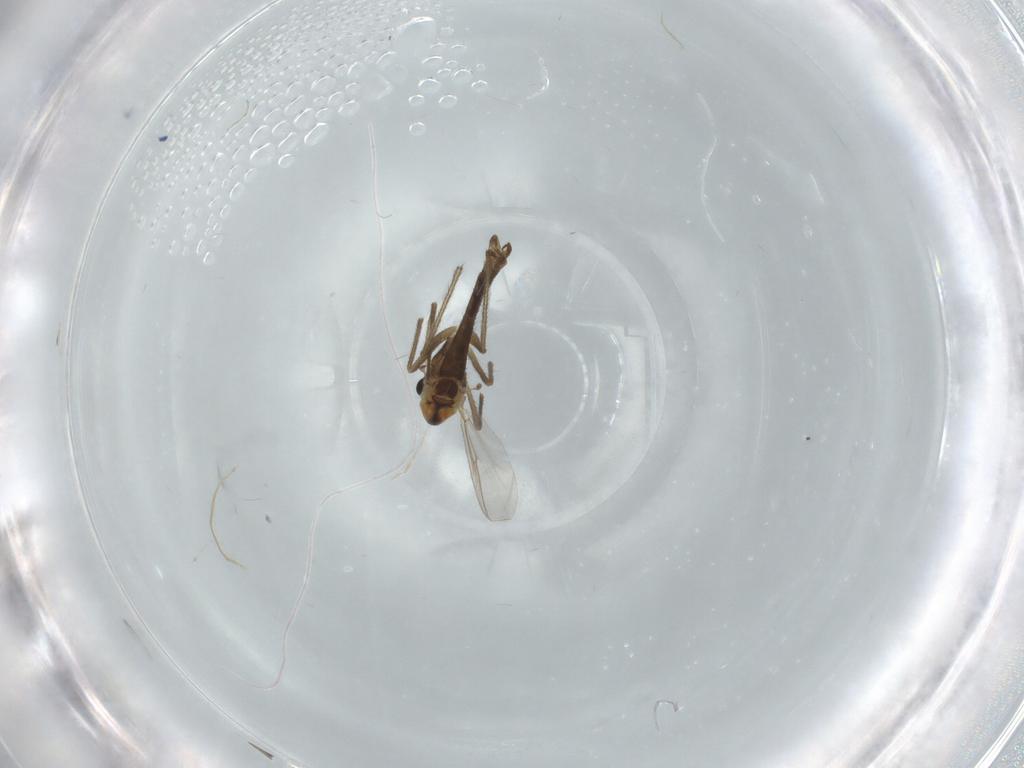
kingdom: Animalia
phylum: Arthropoda
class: Insecta
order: Diptera
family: Chironomidae
